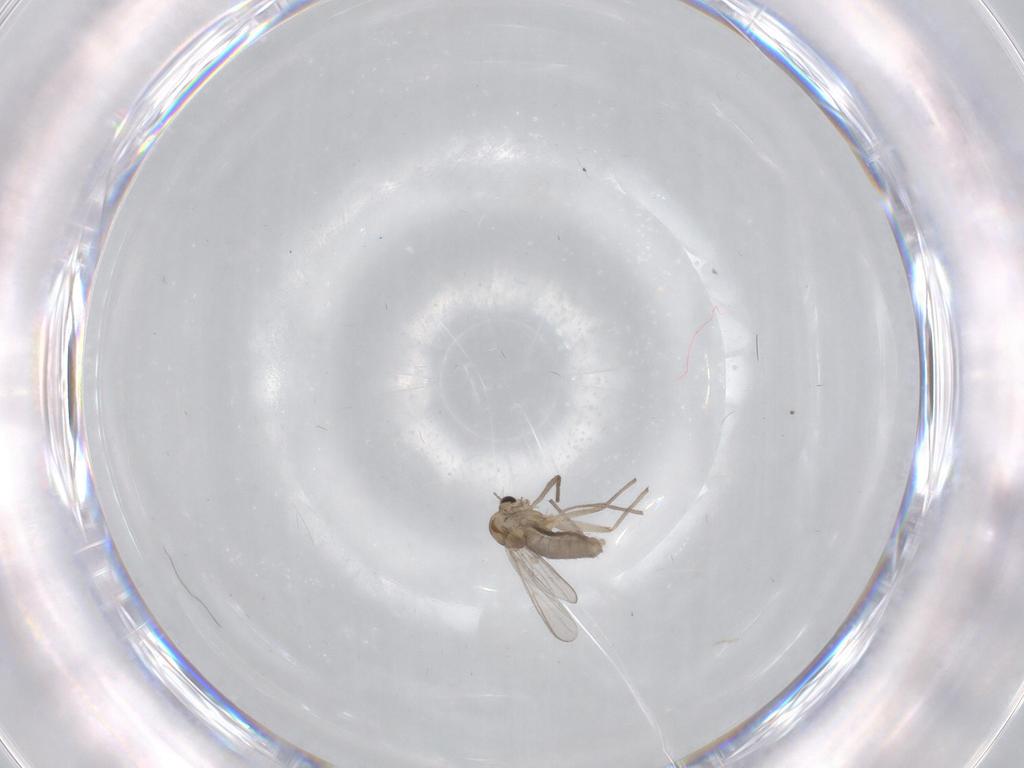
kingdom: Animalia
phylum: Arthropoda
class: Insecta
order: Diptera
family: Chironomidae
